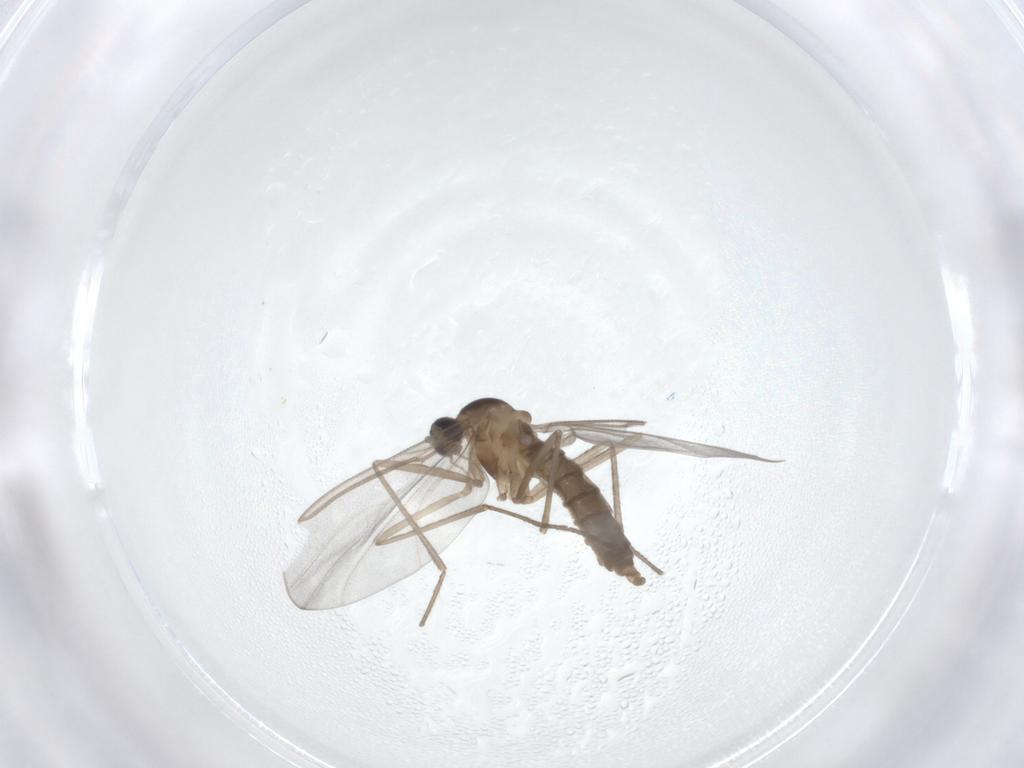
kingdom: Animalia
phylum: Arthropoda
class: Insecta
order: Diptera
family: Cecidomyiidae
